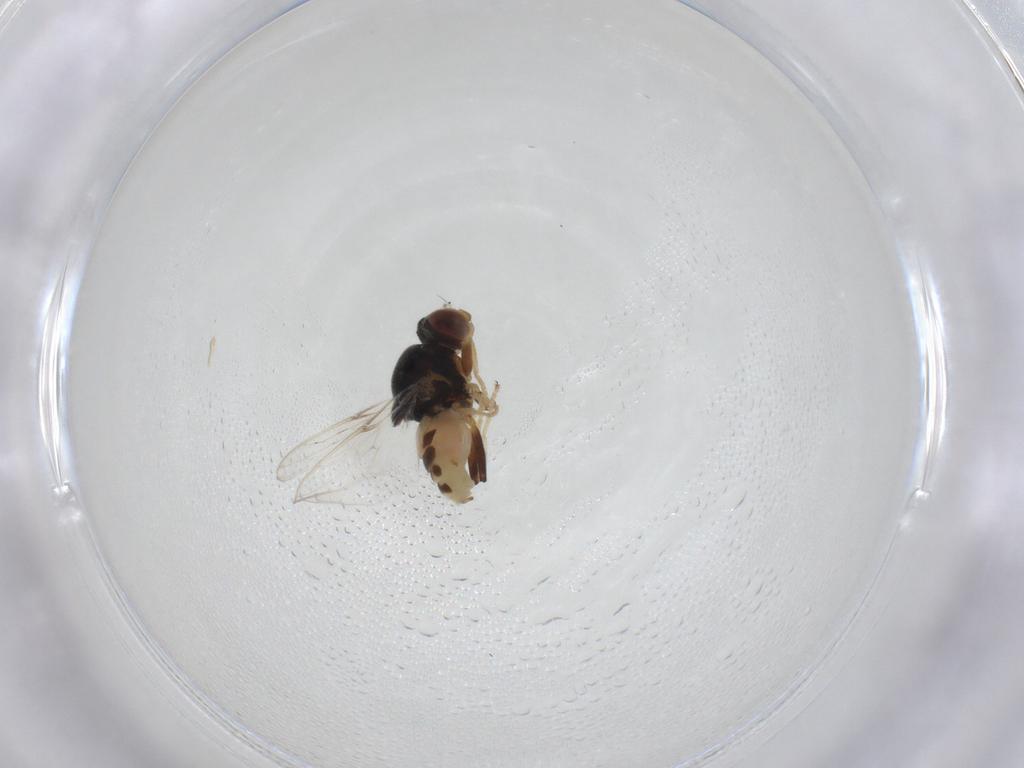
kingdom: Animalia
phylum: Arthropoda
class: Insecta
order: Diptera
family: Chloropidae
